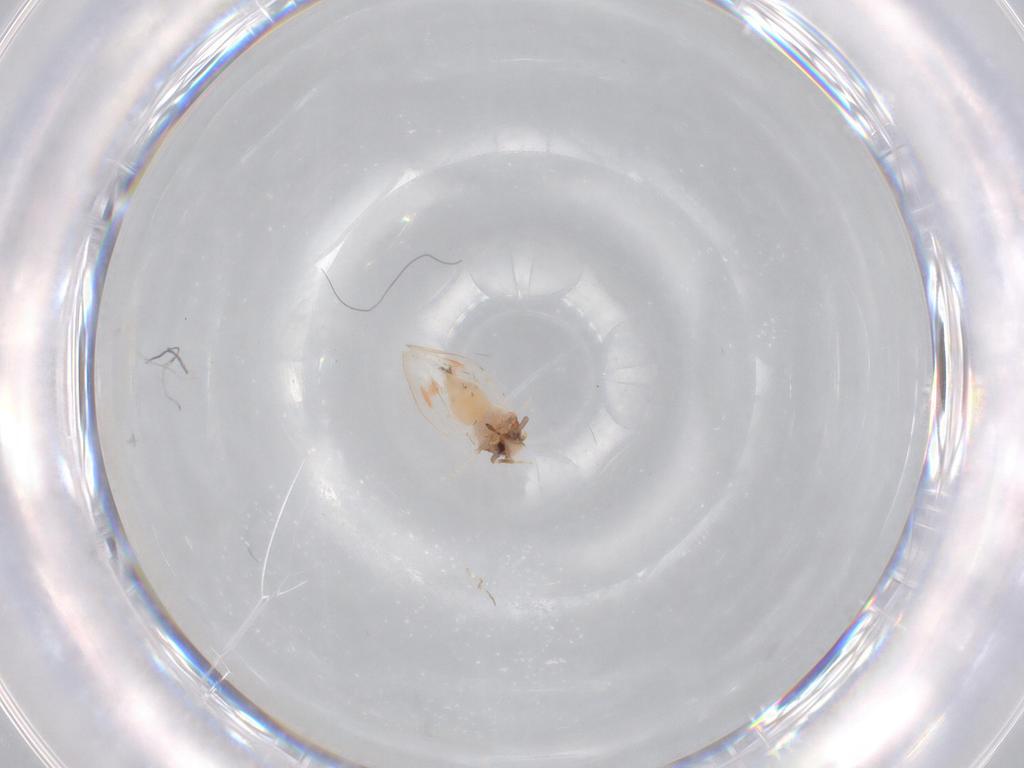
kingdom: Animalia
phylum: Arthropoda
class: Insecta
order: Hemiptera
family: Aleyrodidae
